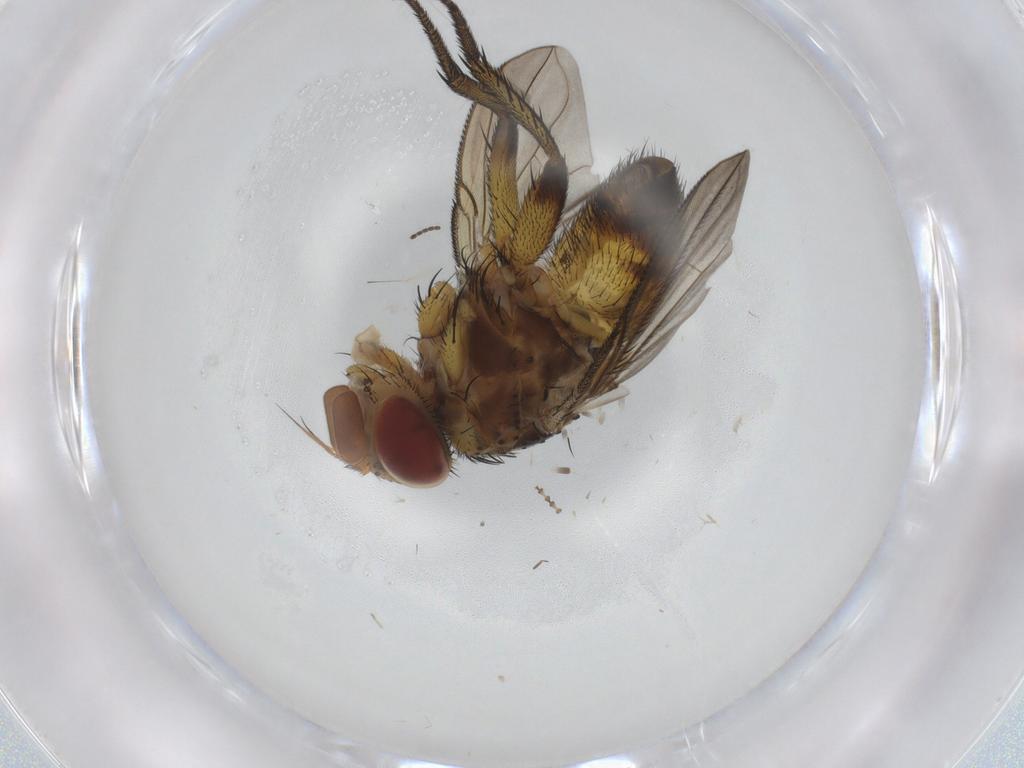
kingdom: Animalia
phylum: Arthropoda
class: Insecta
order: Diptera
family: Tachinidae
